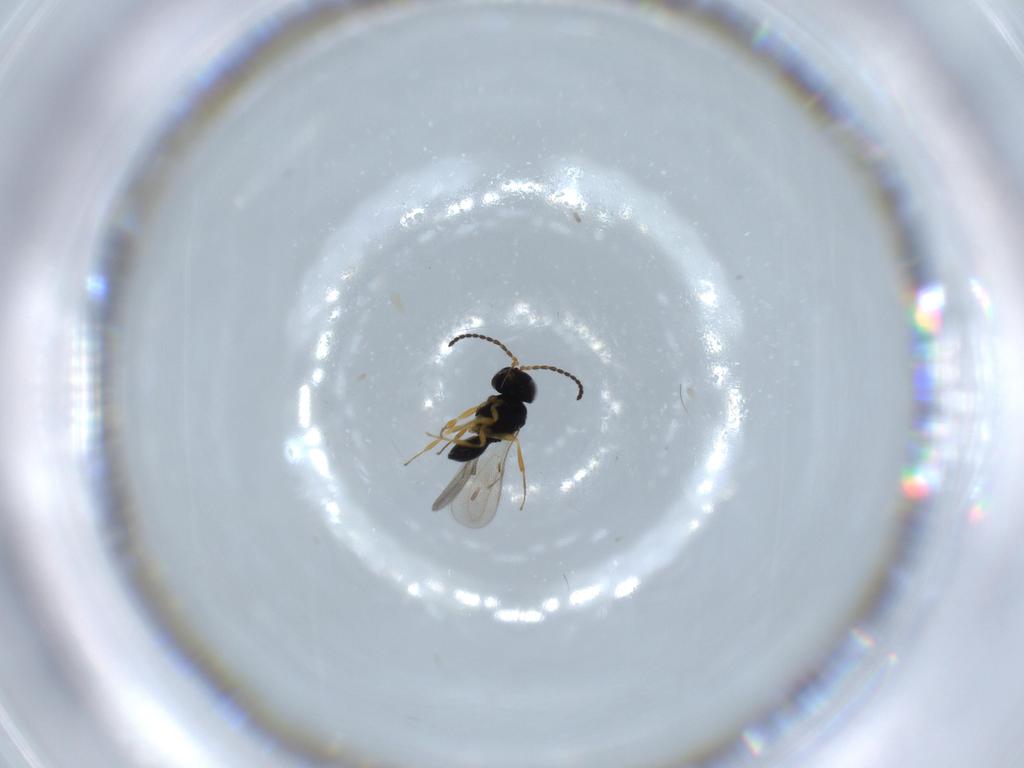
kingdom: Animalia
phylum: Arthropoda
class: Insecta
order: Hymenoptera
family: Scelionidae
